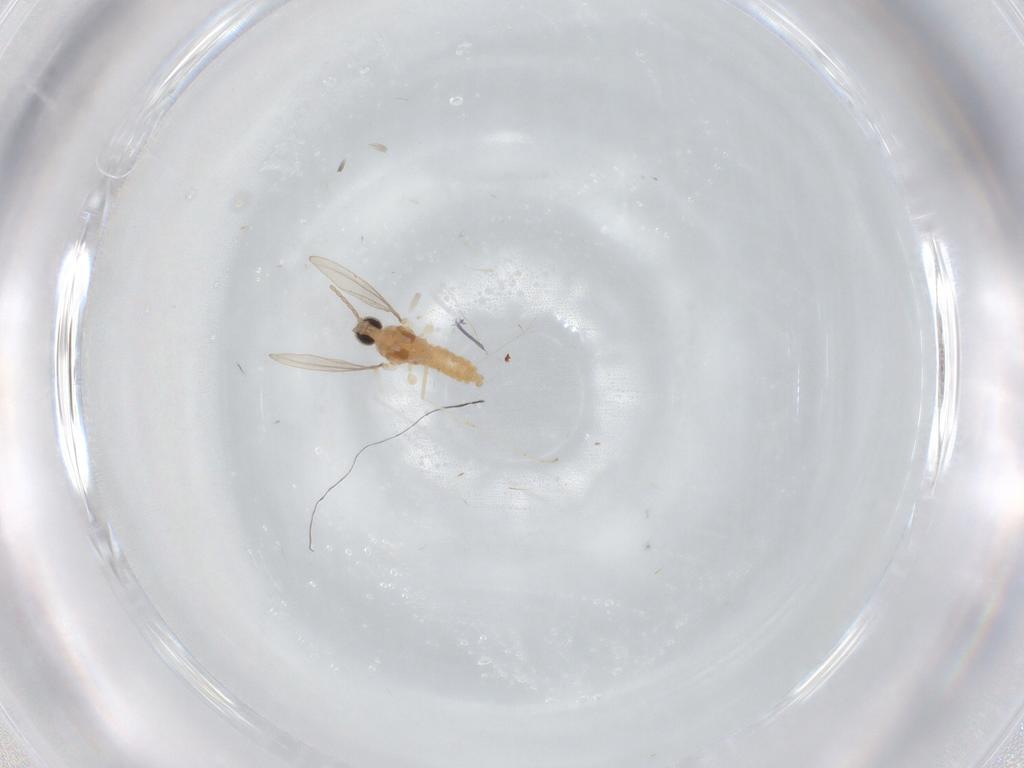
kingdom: Animalia
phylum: Arthropoda
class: Insecta
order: Diptera
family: Cecidomyiidae
